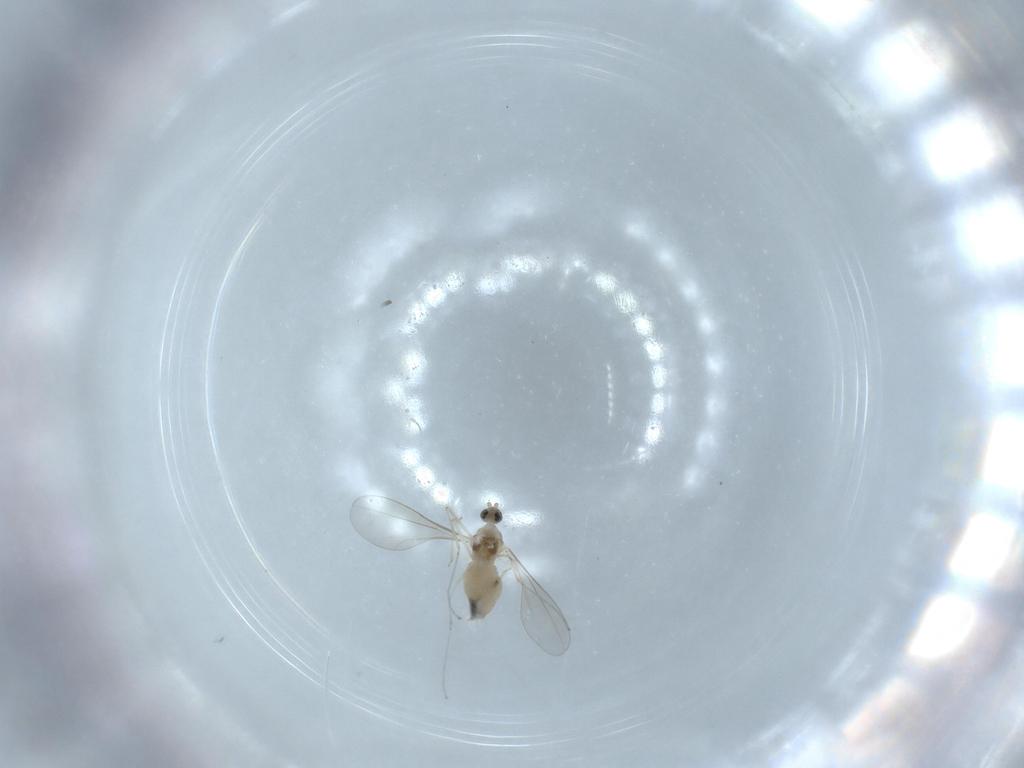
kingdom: Animalia
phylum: Arthropoda
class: Insecta
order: Diptera
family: Cecidomyiidae
